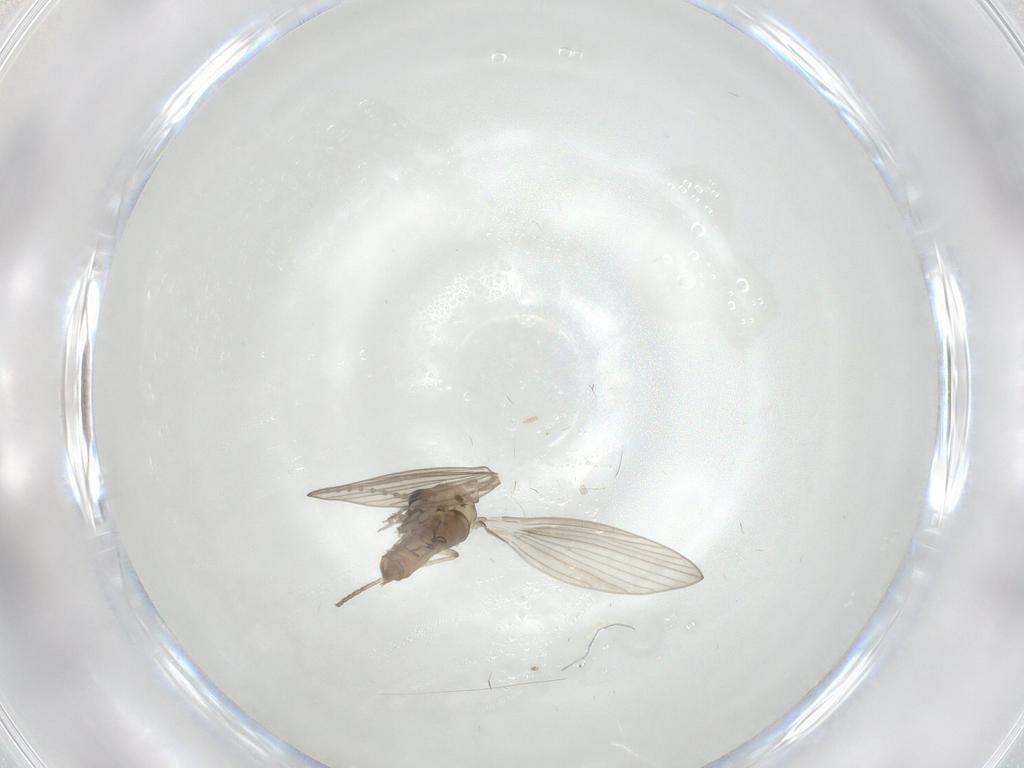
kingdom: Animalia
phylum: Arthropoda
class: Insecta
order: Diptera
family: Psychodidae
